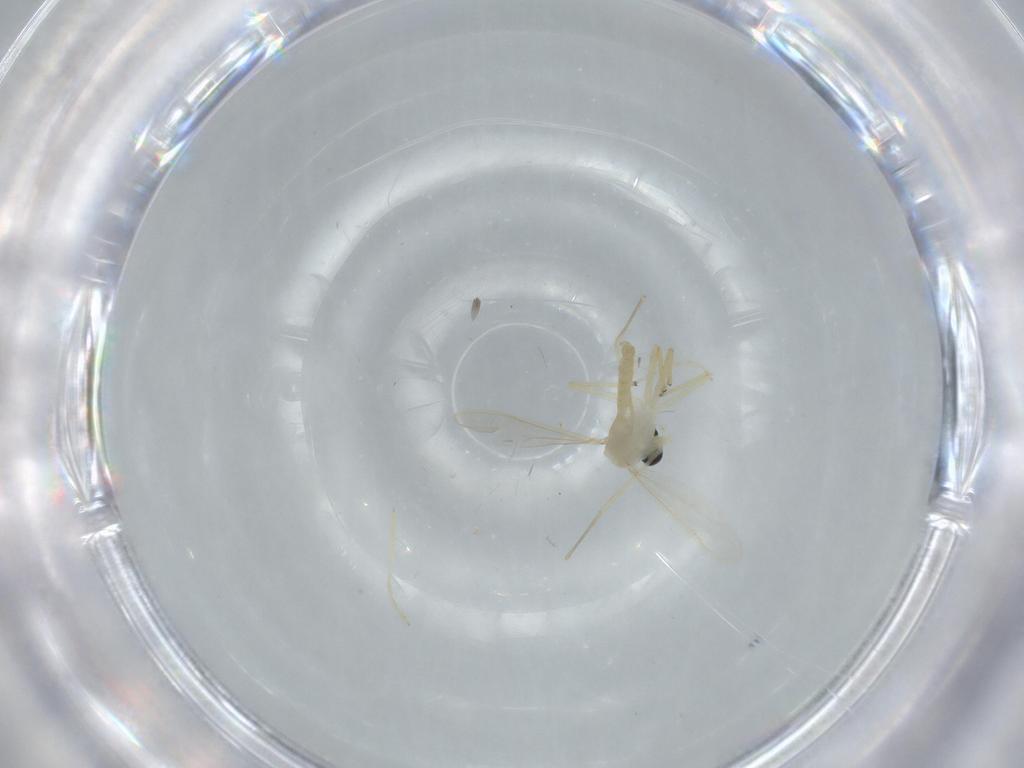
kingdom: Animalia
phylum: Arthropoda
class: Insecta
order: Diptera
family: Chironomidae
